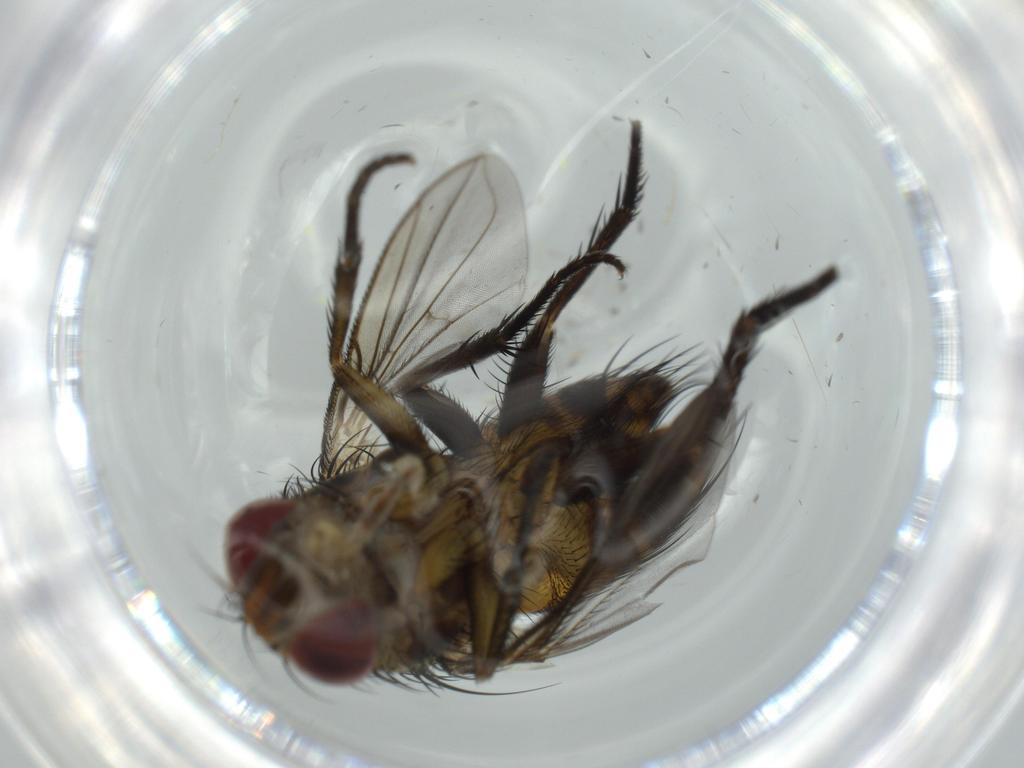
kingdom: Animalia
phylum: Arthropoda
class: Insecta
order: Diptera
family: Milichiidae
